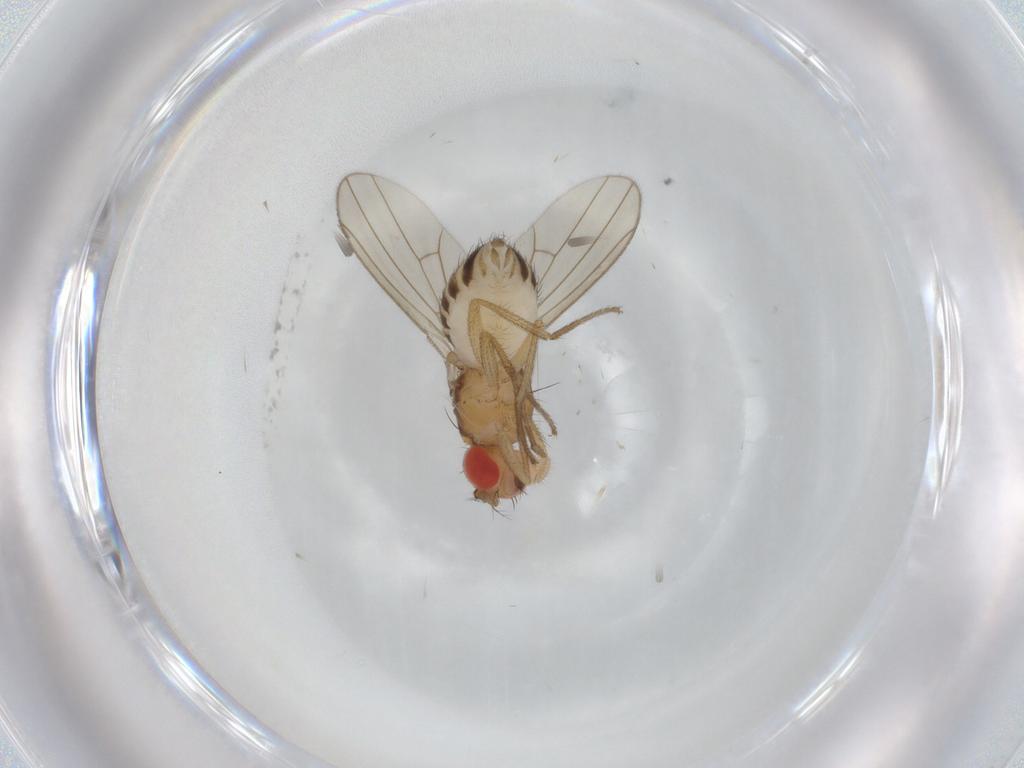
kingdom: Animalia
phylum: Arthropoda
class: Insecta
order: Diptera
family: Drosophilidae
